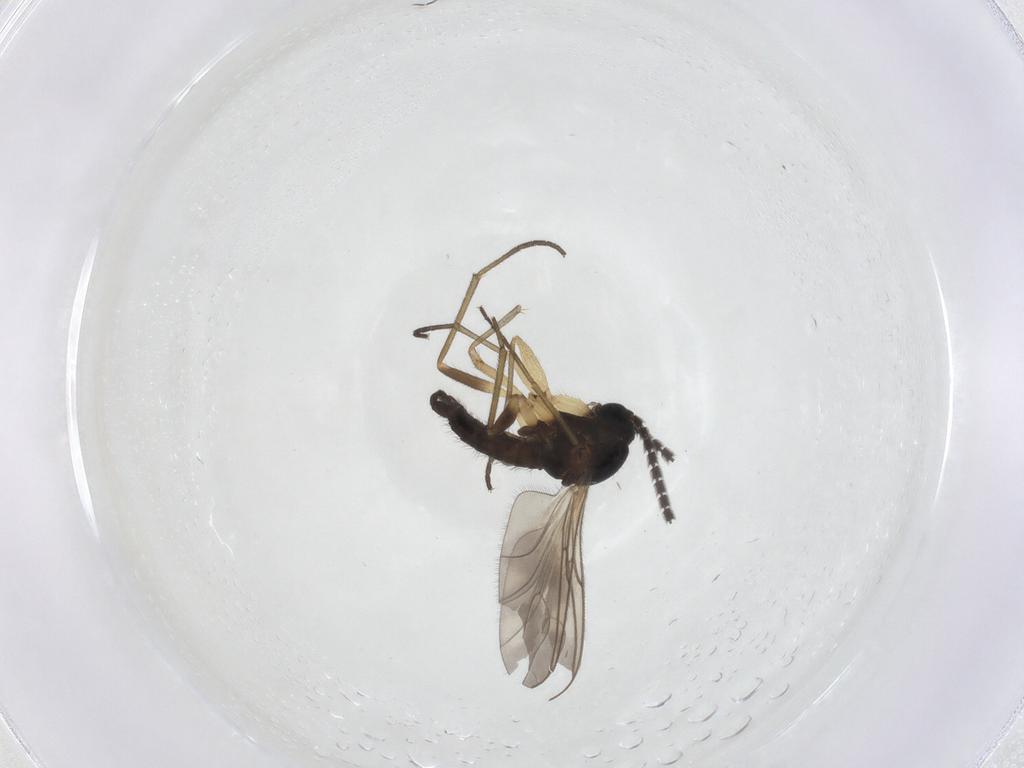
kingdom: Animalia
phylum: Arthropoda
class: Insecta
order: Diptera
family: Sciaridae
